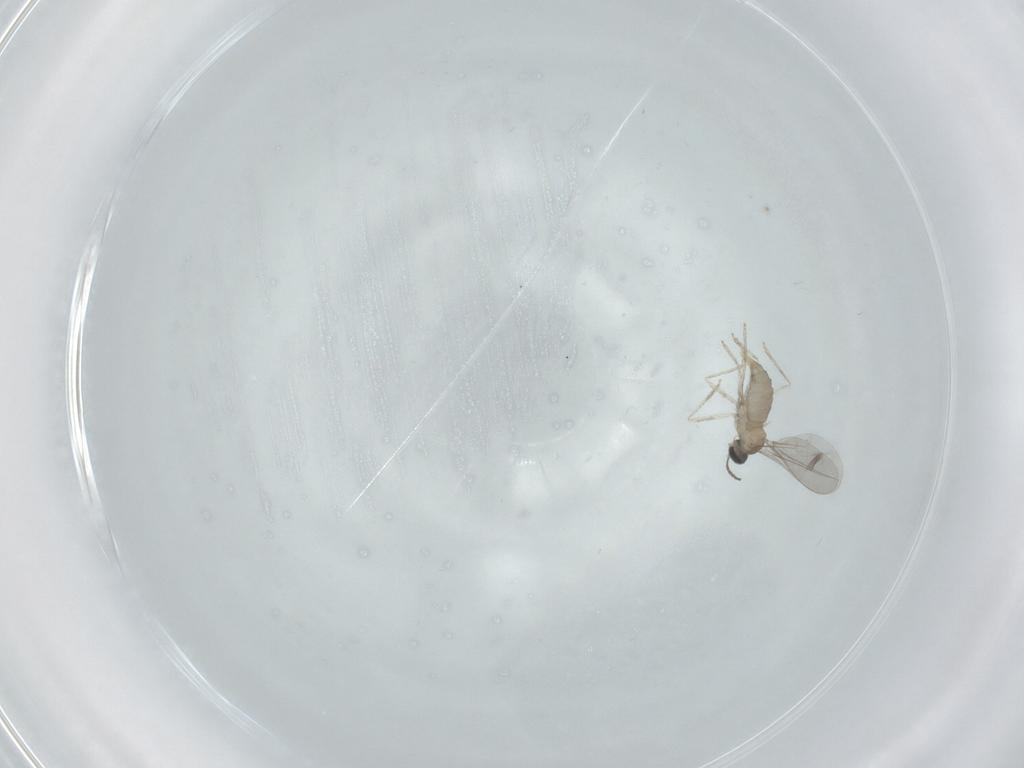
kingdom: Animalia
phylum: Arthropoda
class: Insecta
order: Diptera
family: Cecidomyiidae
